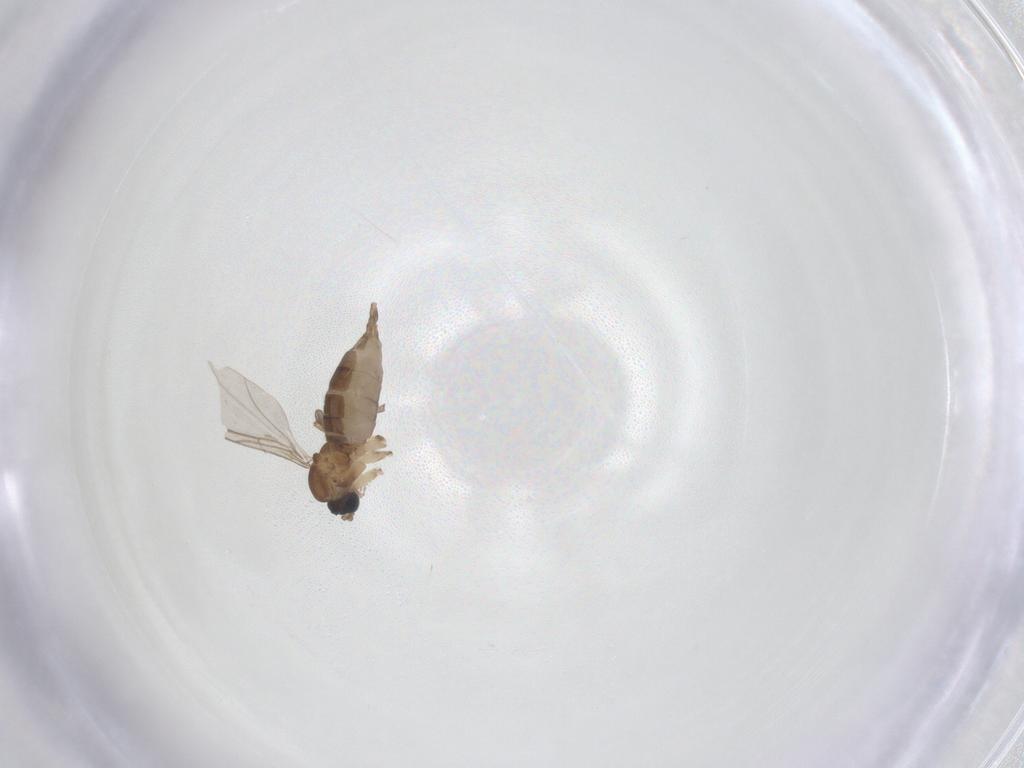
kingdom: Animalia
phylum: Arthropoda
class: Insecta
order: Diptera
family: Sciaridae
